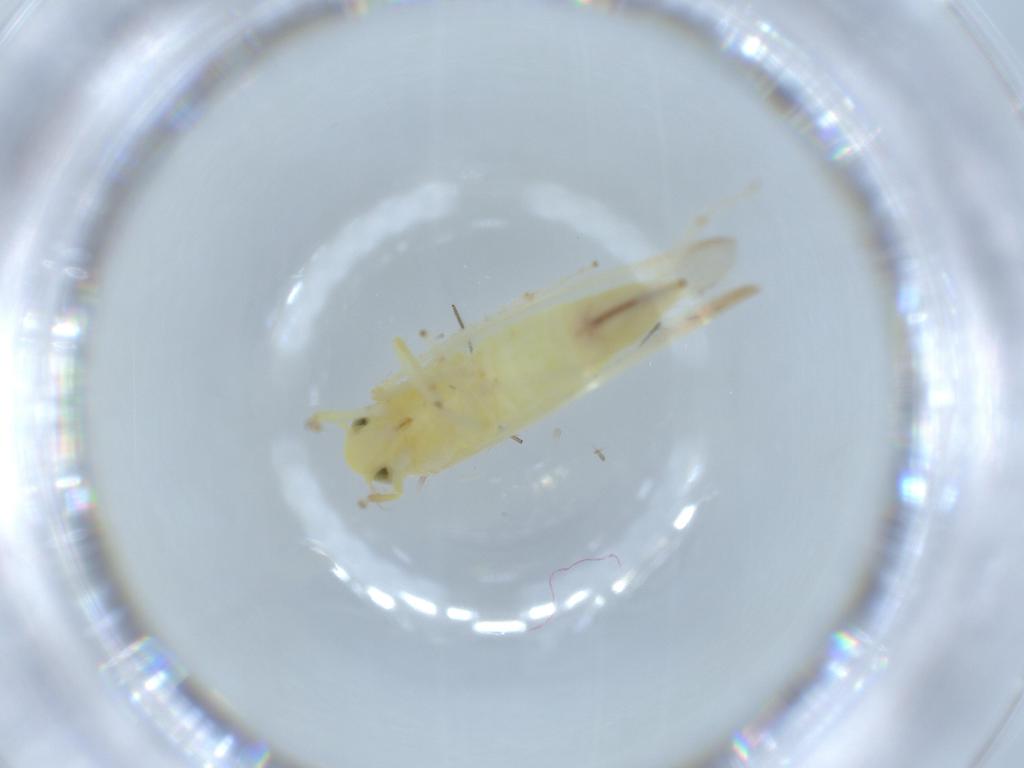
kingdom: Animalia
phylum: Arthropoda
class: Insecta
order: Hemiptera
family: Cicadellidae
